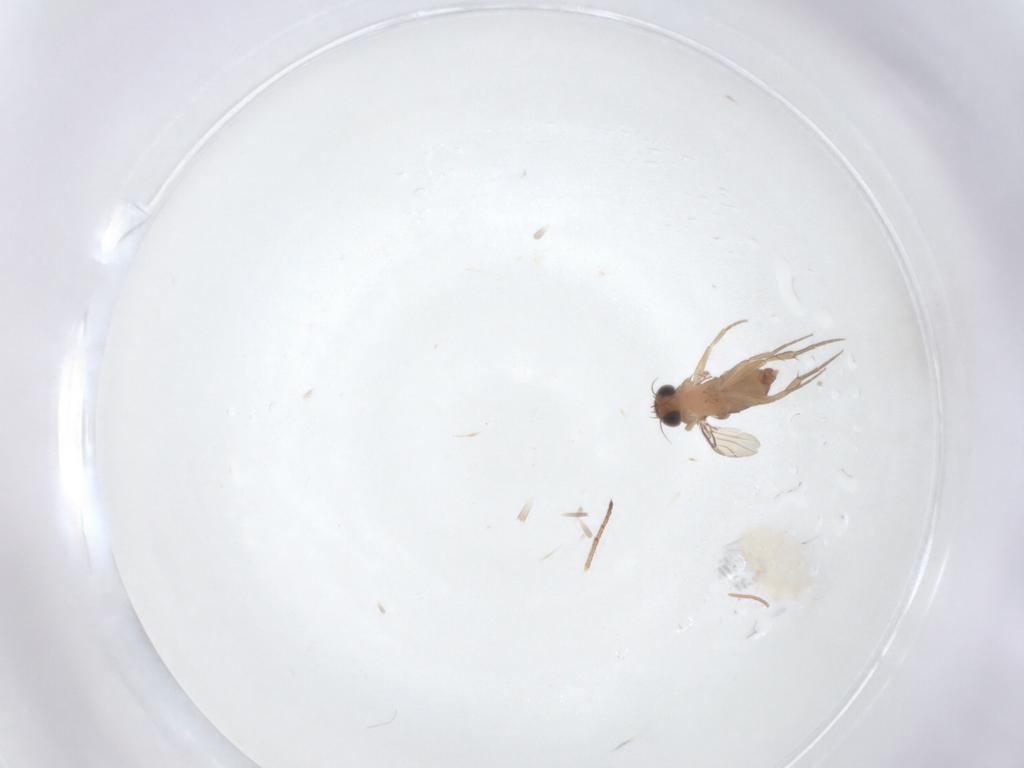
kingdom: Animalia
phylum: Arthropoda
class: Insecta
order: Diptera
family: Phoridae
